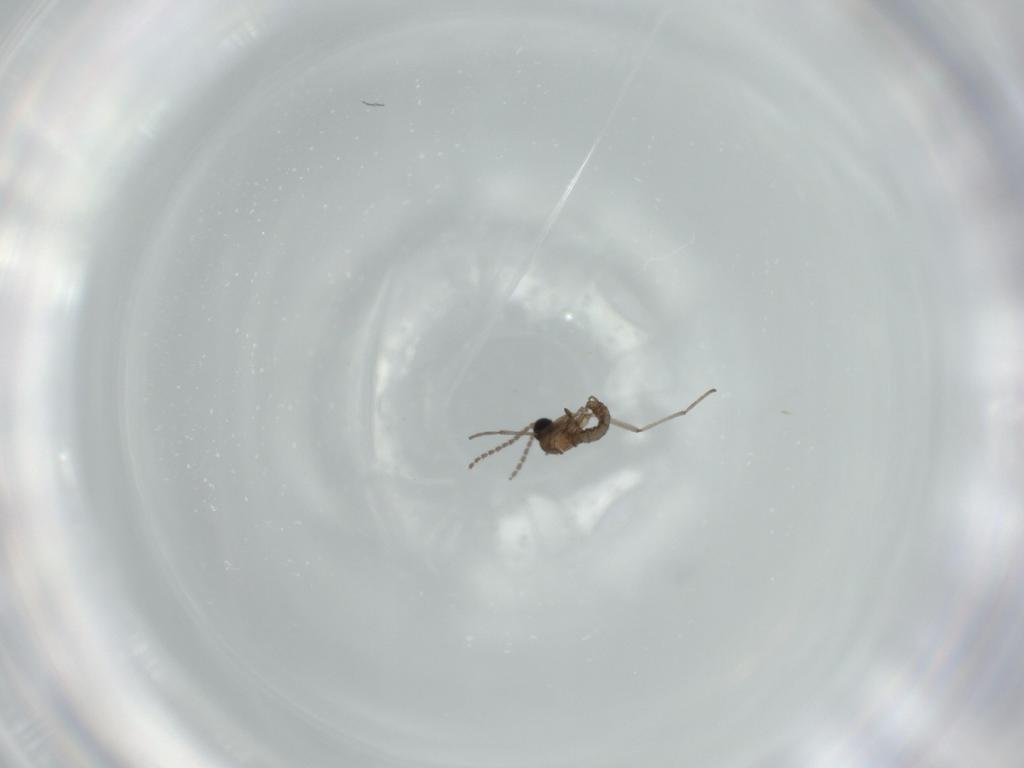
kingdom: Animalia
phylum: Arthropoda
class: Insecta
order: Diptera
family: Sciaridae
